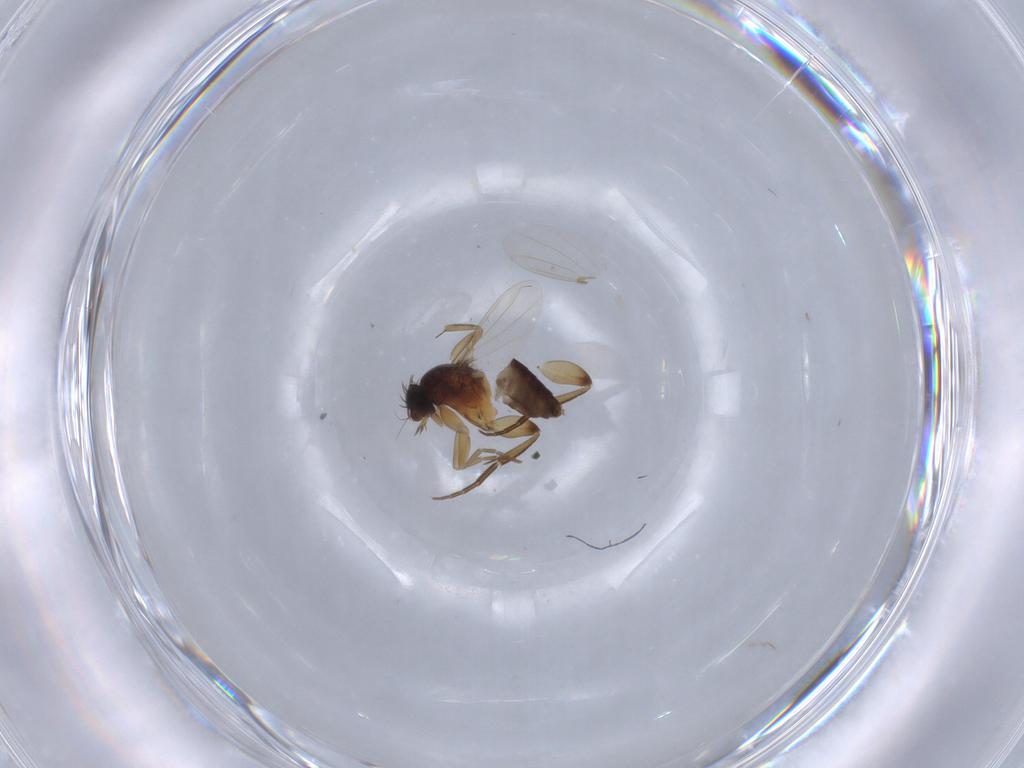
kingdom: Animalia
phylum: Arthropoda
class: Insecta
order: Diptera
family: Phoridae
